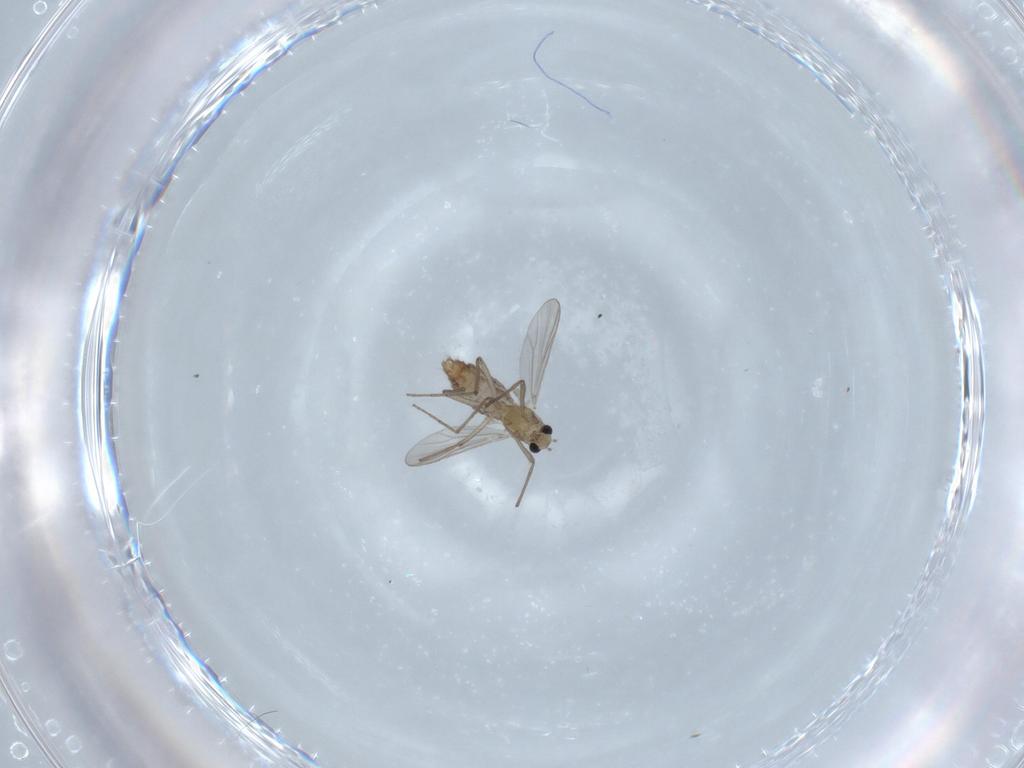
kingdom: Animalia
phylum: Arthropoda
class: Insecta
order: Diptera
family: Chironomidae
